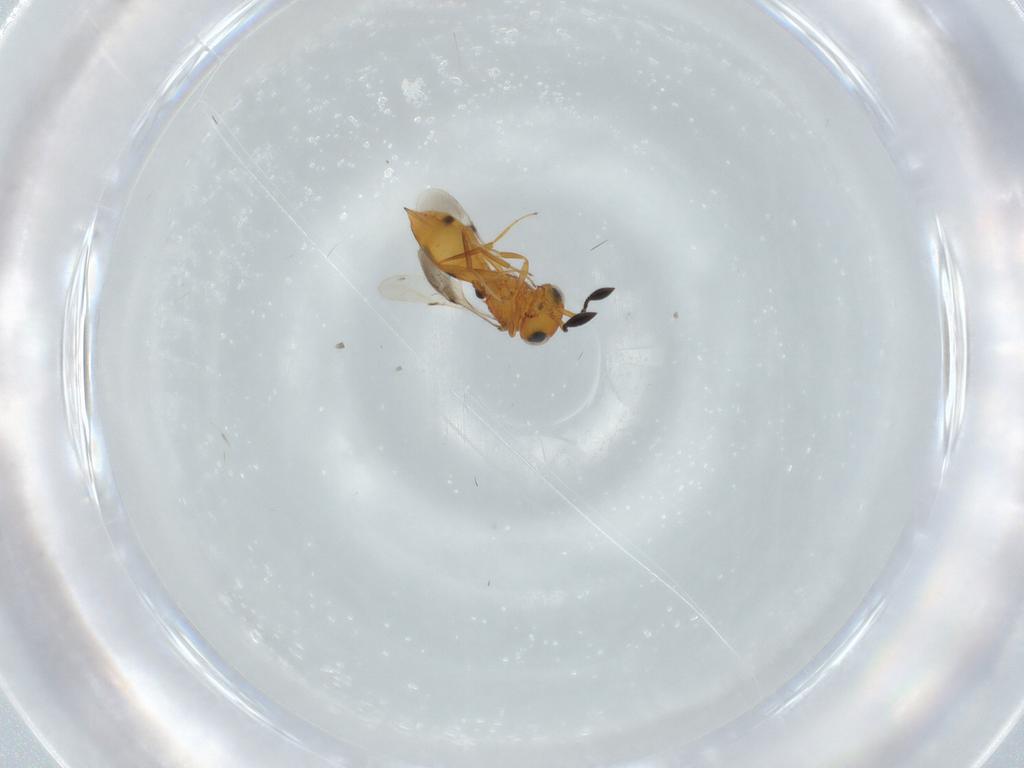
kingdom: Animalia
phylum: Arthropoda
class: Insecta
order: Hymenoptera
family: Scelionidae
